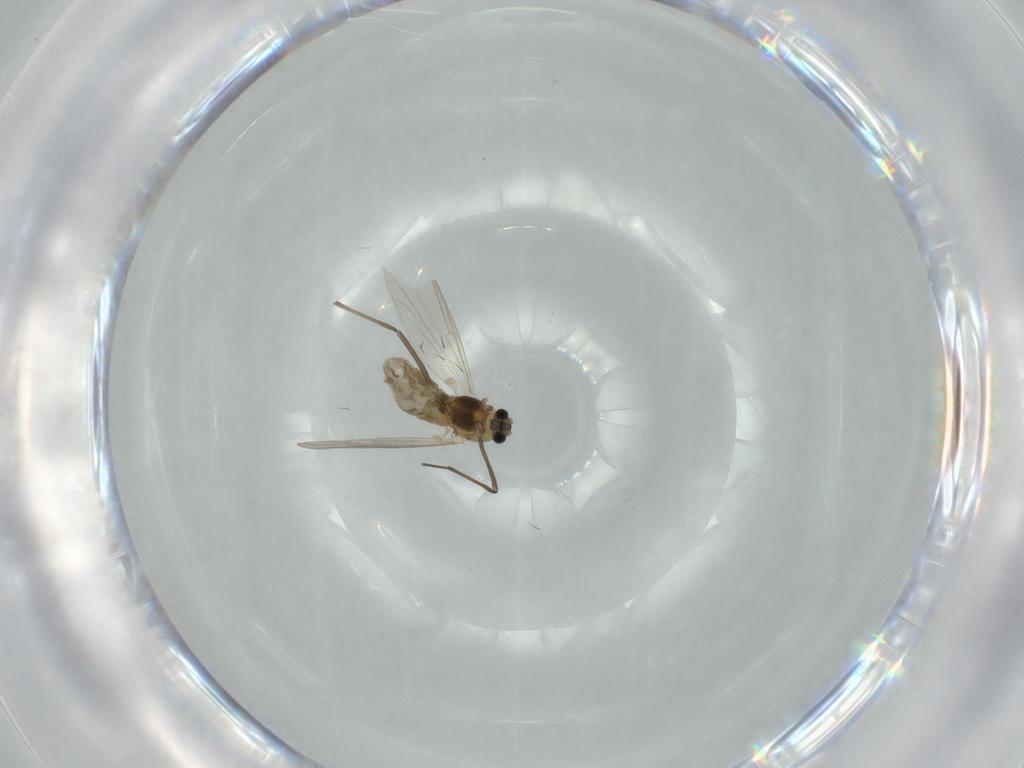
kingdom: Animalia
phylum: Arthropoda
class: Insecta
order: Diptera
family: Chironomidae
